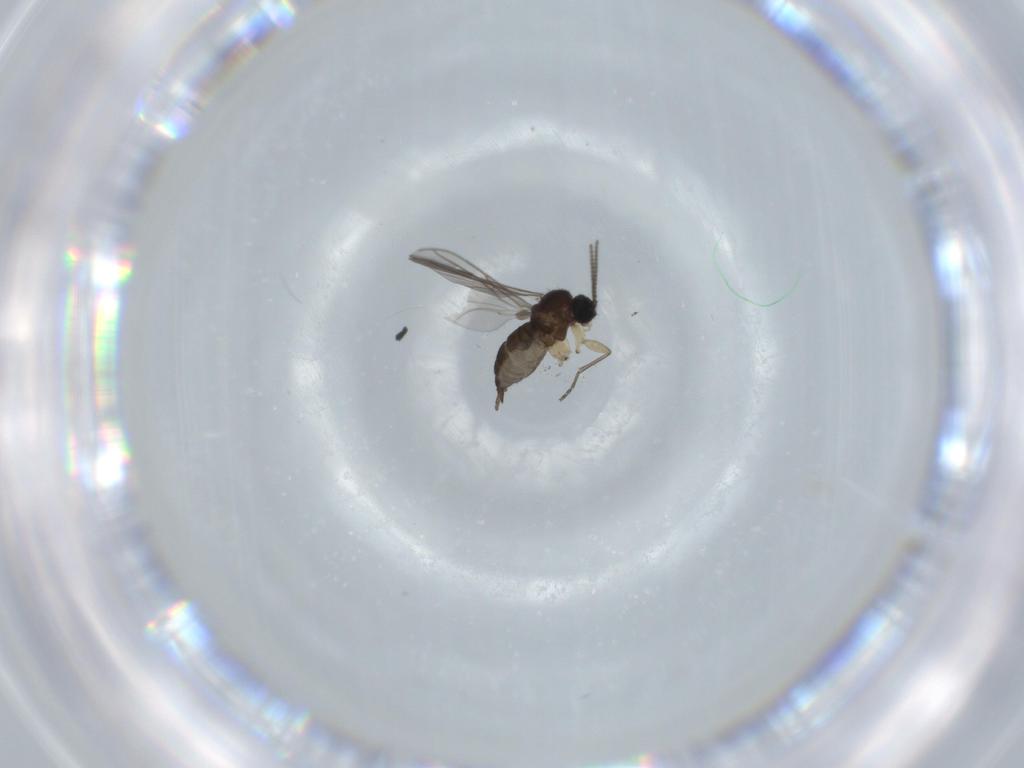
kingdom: Animalia
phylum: Arthropoda
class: Insecta
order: Diptera
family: Sciaridae
